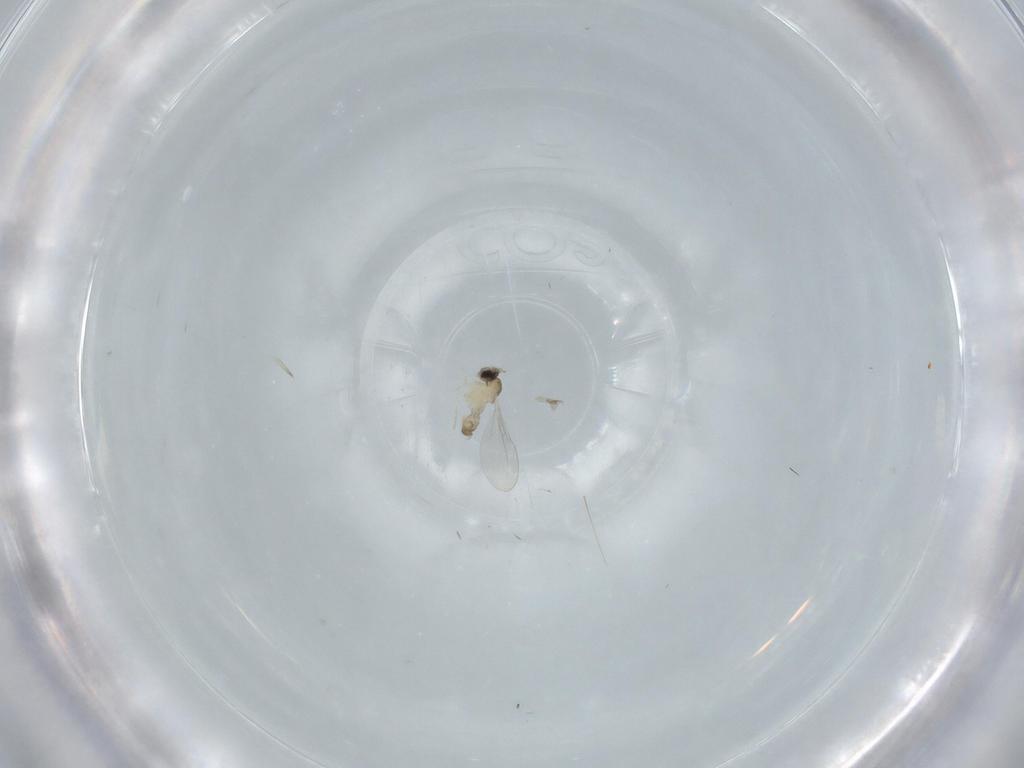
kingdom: Animalia
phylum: Arthropoda
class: Insecta
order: Diptera
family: Cecidomyiidae
